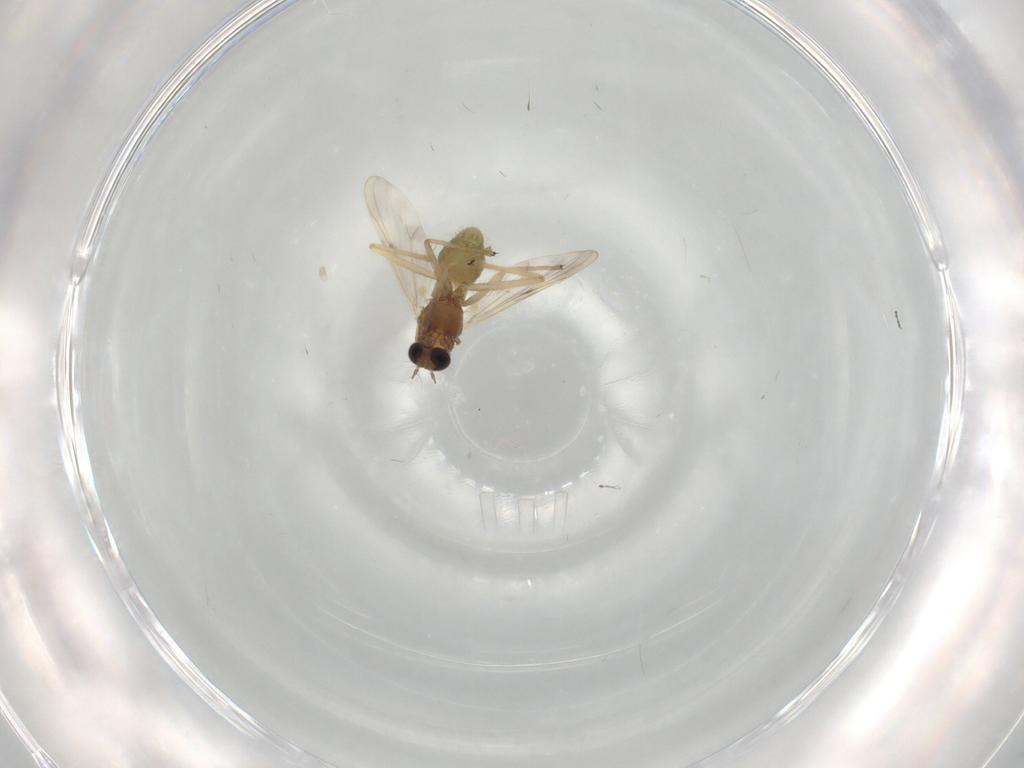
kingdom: Animalia
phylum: Arthropoda
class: Insecta
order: Diptera
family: Chironomidae
